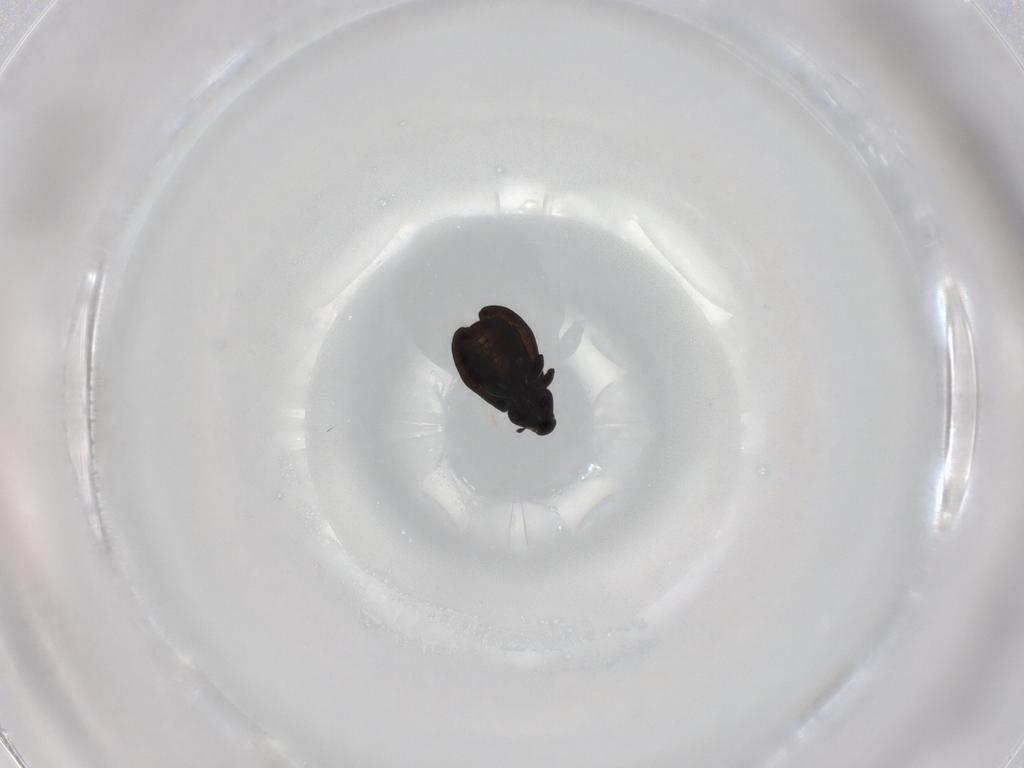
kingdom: Animalia
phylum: Arthropoda
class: Insecta
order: Coleoptera
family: Curculionidae
